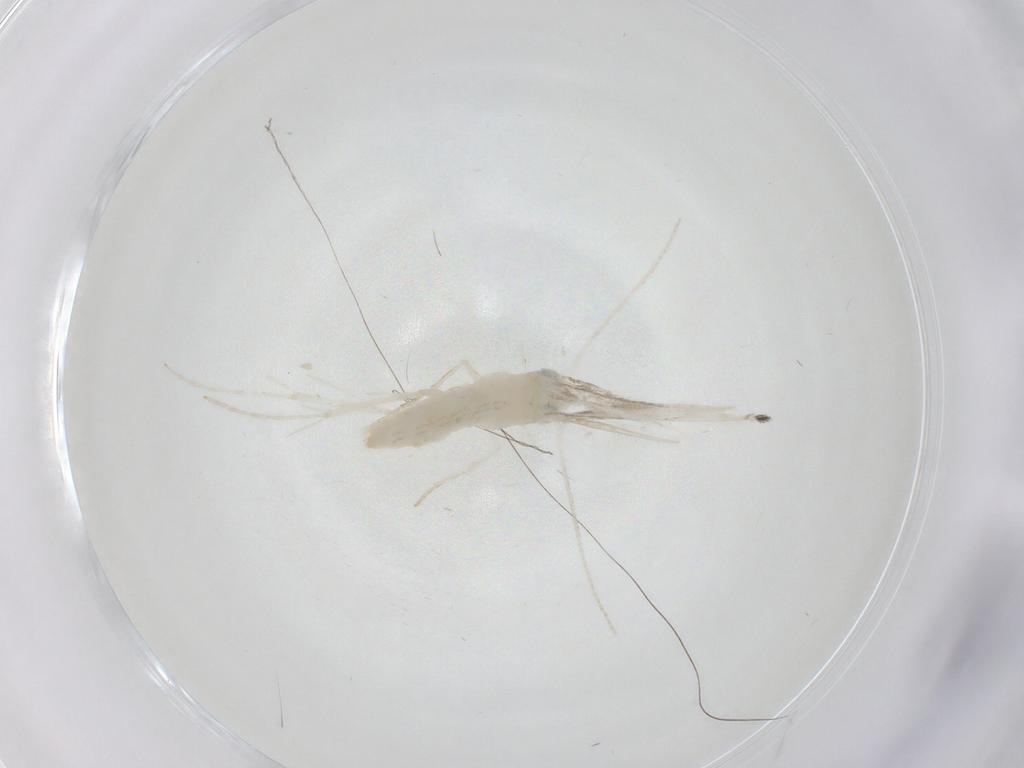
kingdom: Animalia
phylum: Arthropoda
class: Insecta
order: Lepidoptera
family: Gracillariidae
